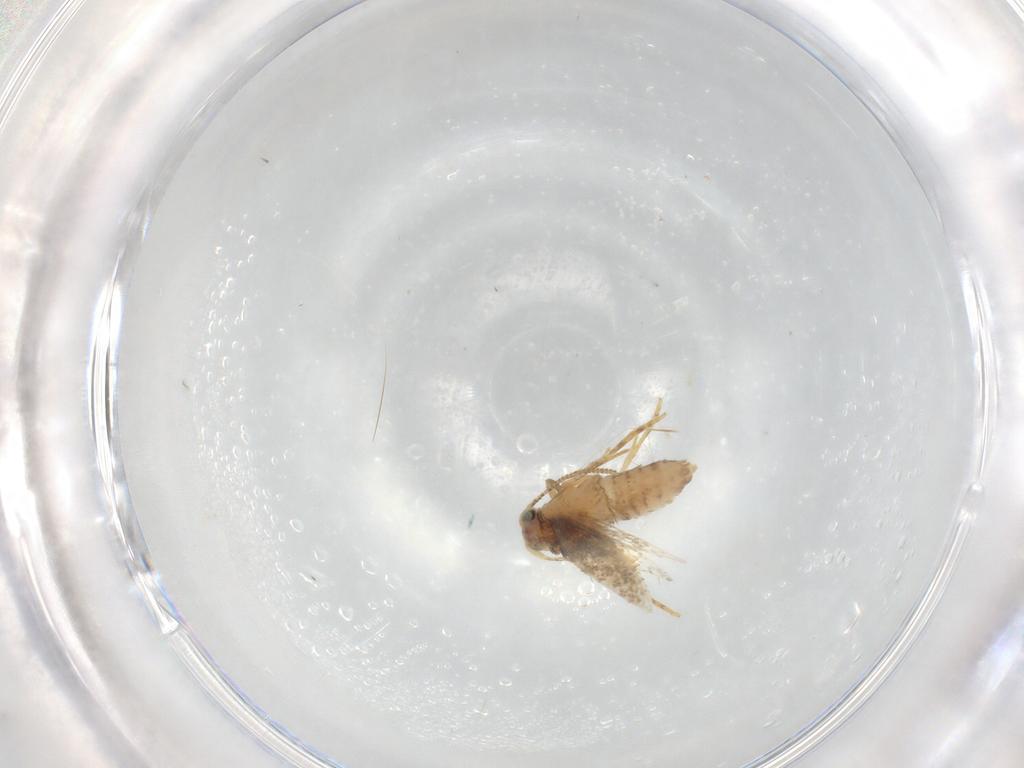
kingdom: Animalia
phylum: Arthropoda
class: Insecta
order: Lepidoptera
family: Nepticulidae
